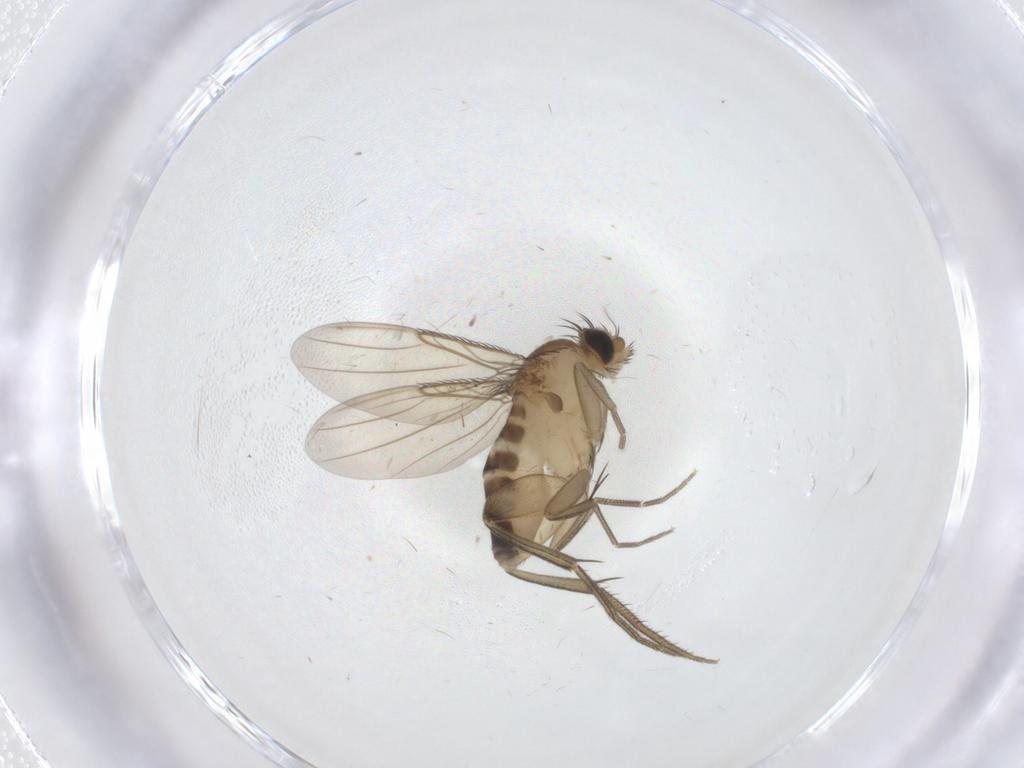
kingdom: Animalia
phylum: Arthropoda
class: Insecta
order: Diptera
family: Phoridae
